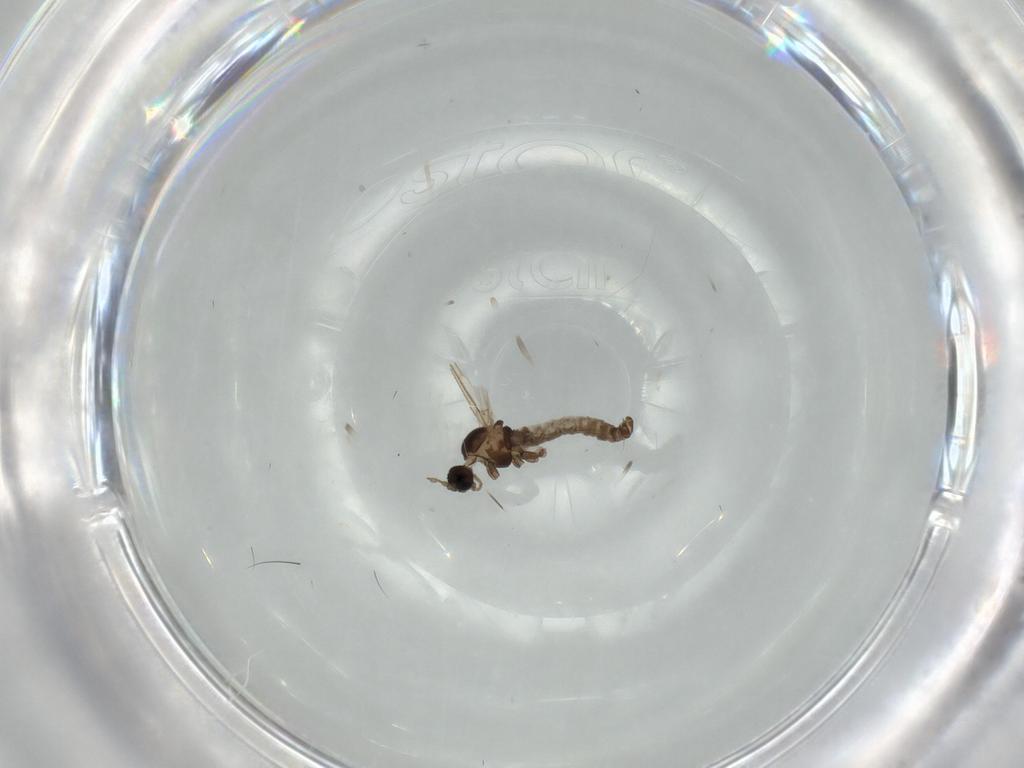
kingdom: Animalia
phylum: Arthropoda
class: Insecta
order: Diptera
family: Cecidomyiidae
